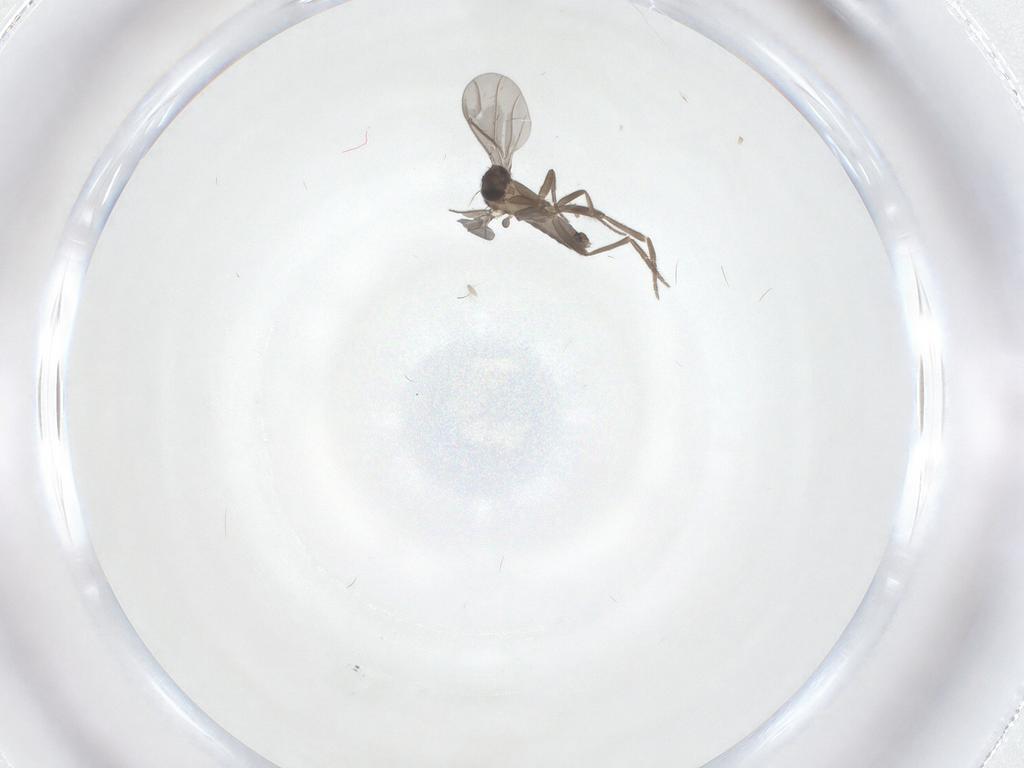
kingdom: Animalia
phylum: Arthropoda
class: Insecta
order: Diptera
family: Phoridae
